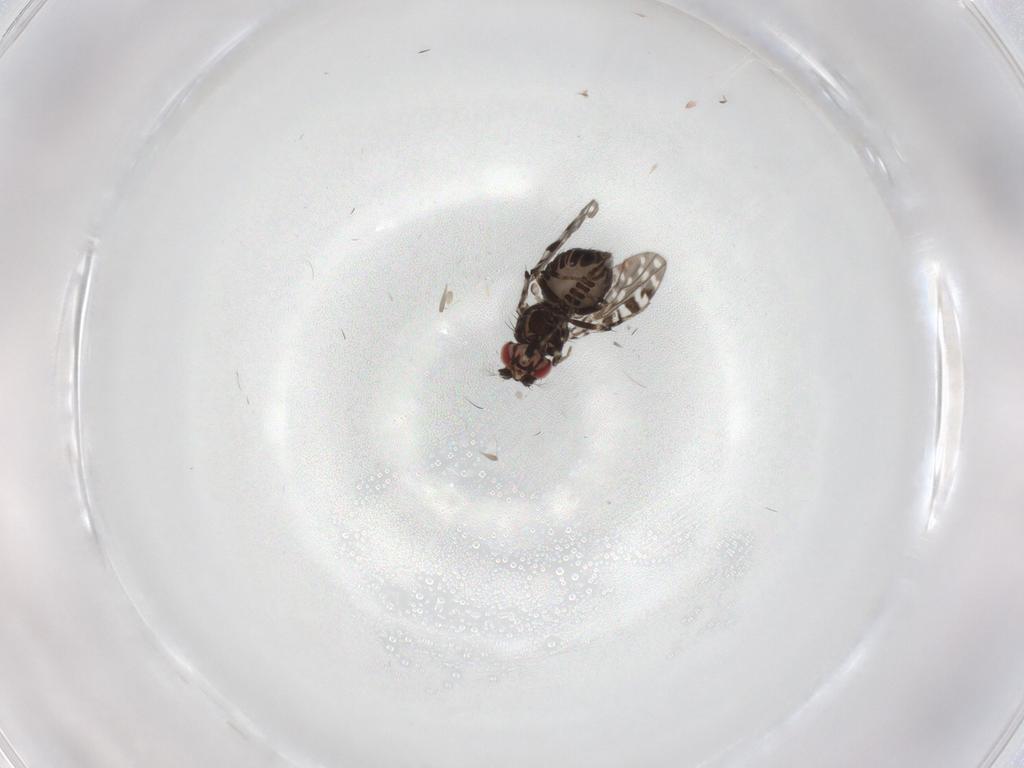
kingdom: Animalia
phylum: Arthropoda
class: Insecta
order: Diptera
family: Drosophilidae
